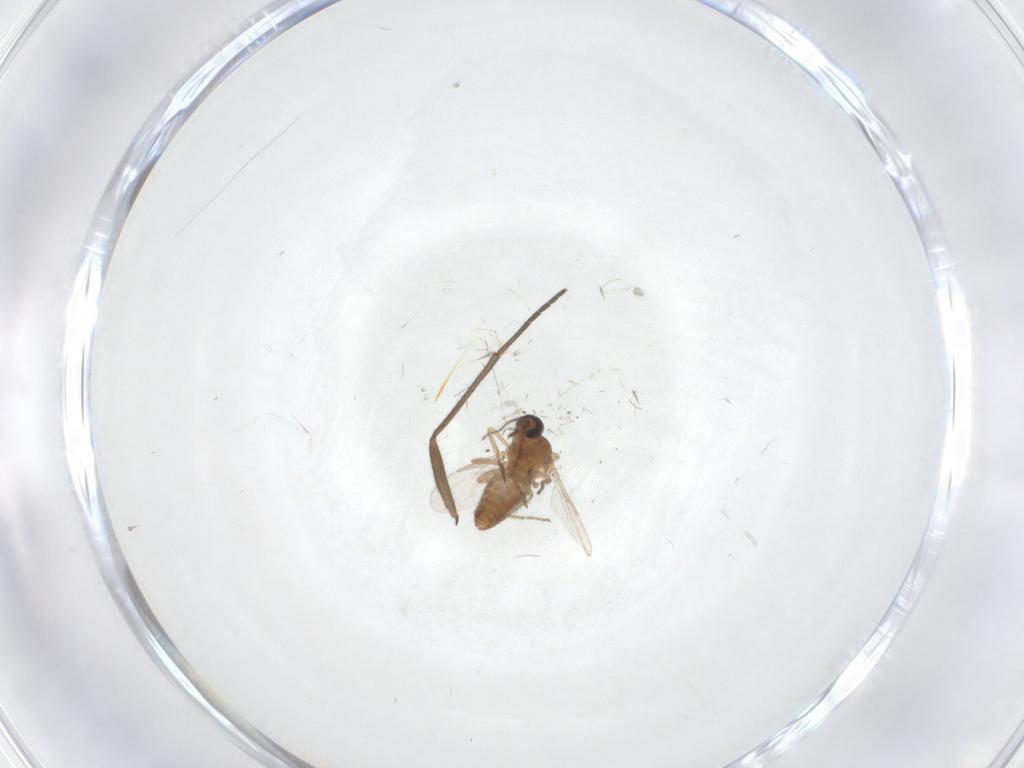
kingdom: Animalia
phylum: Arthropoda
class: Insecta
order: Diptera
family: Ceratopogonidae
